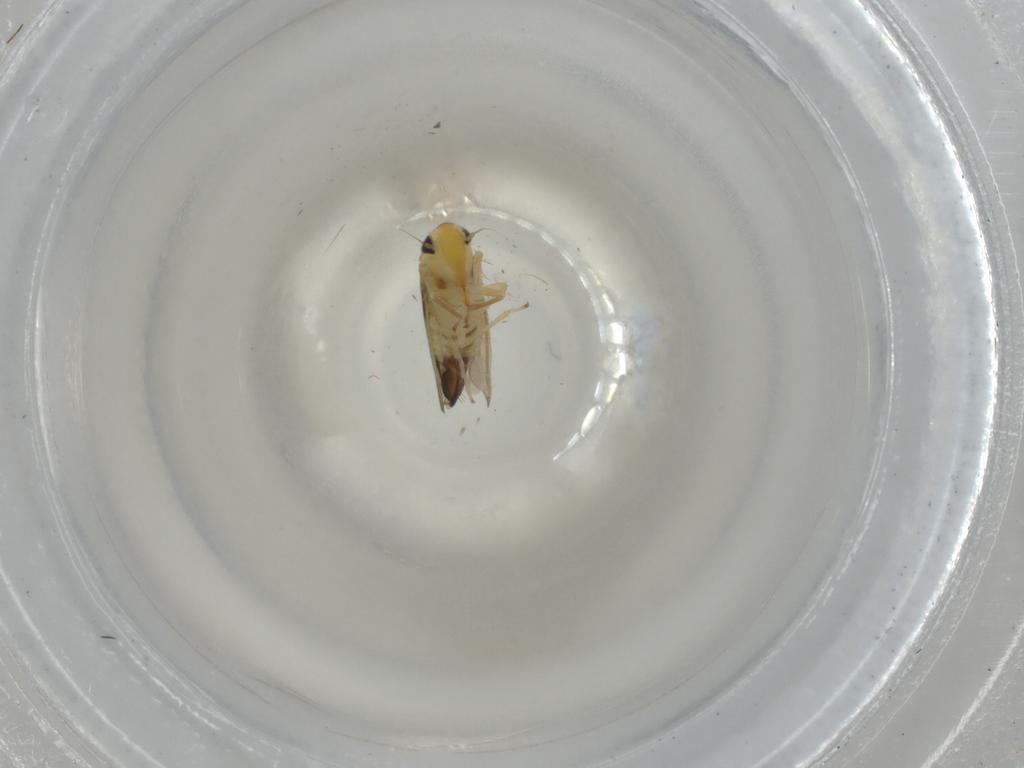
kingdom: Animalia
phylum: Arthropoda
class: Insecta
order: Hemiptera
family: Cicadellidae
